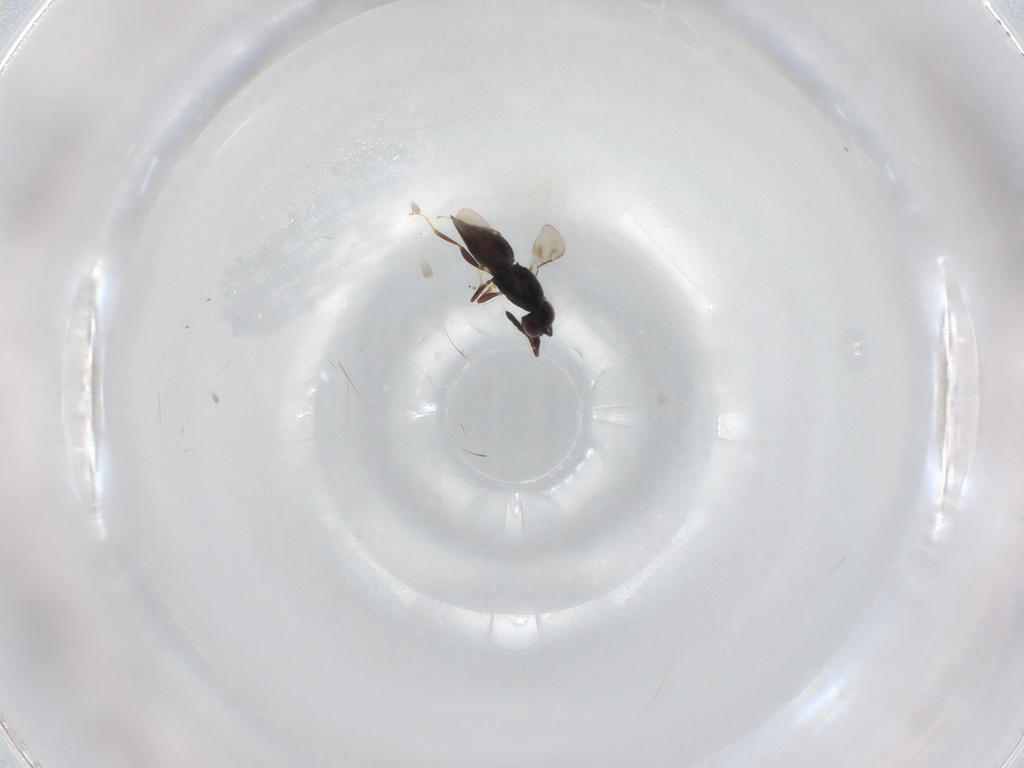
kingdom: Animalia
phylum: Arthropoda
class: Insecta
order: Hymenoptera
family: Ceraphronidae
